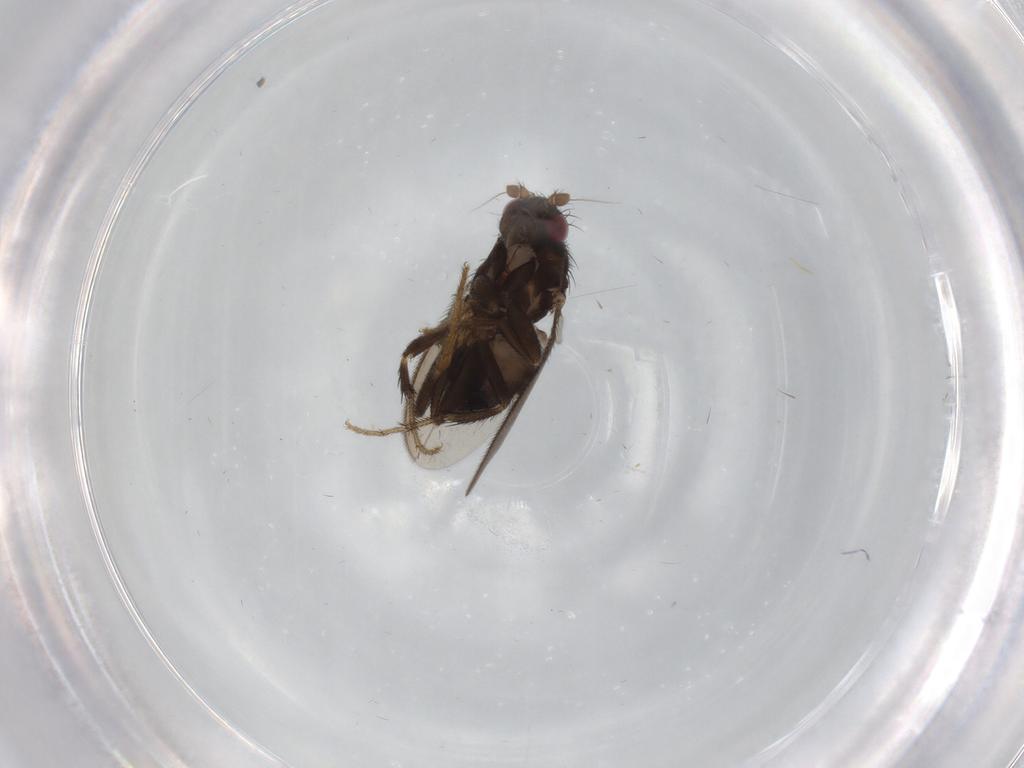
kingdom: Animalia
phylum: Arthropoda
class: Insecta
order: Diptera
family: Sphaeroceridae
